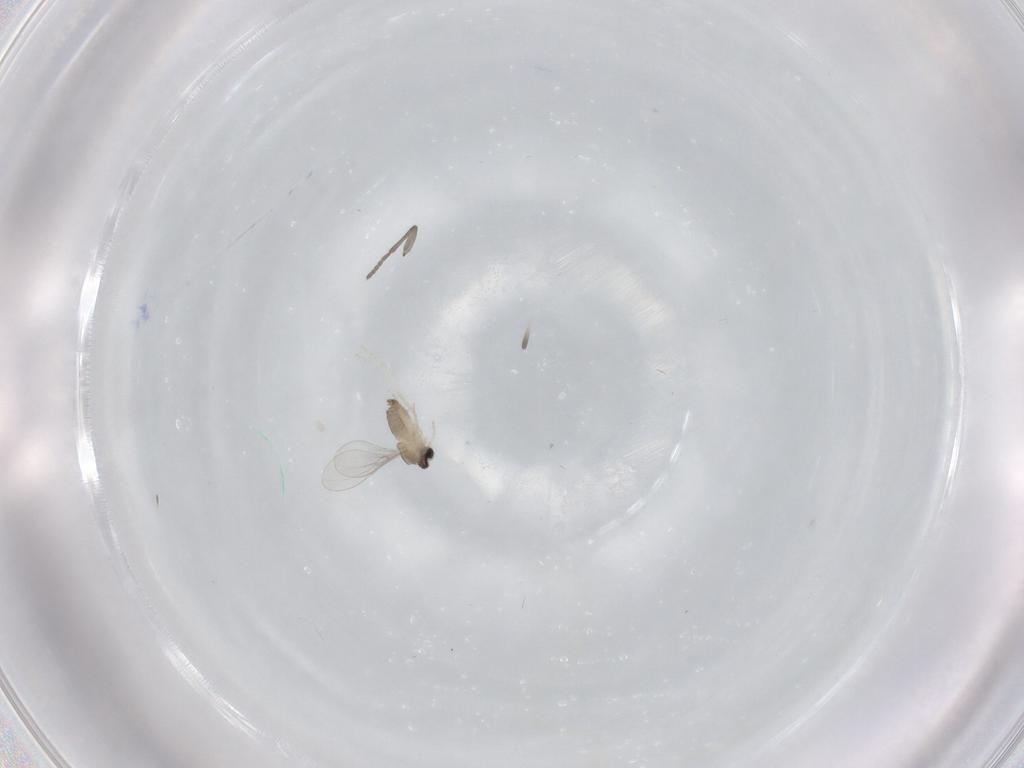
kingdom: Animalia
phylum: Arthropoda
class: Insecta
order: Diptera
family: Cecidomyiidae
